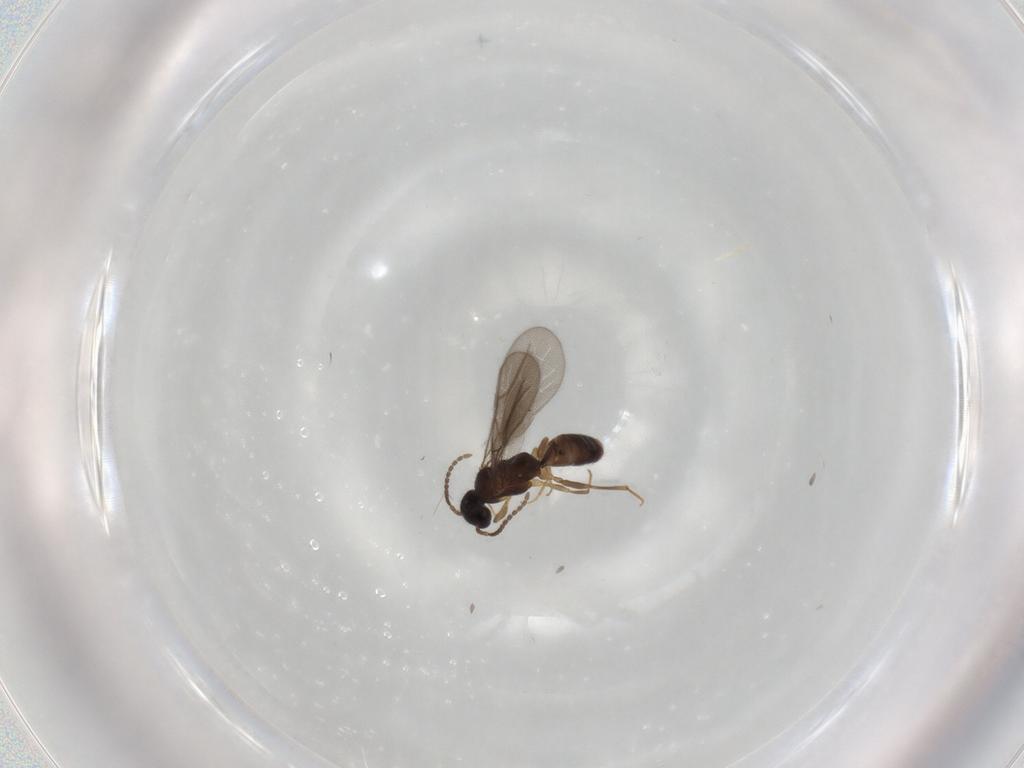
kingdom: Animalia
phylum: Arthropoda
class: Insecta
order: Hymenoptera
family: Bethylidae
